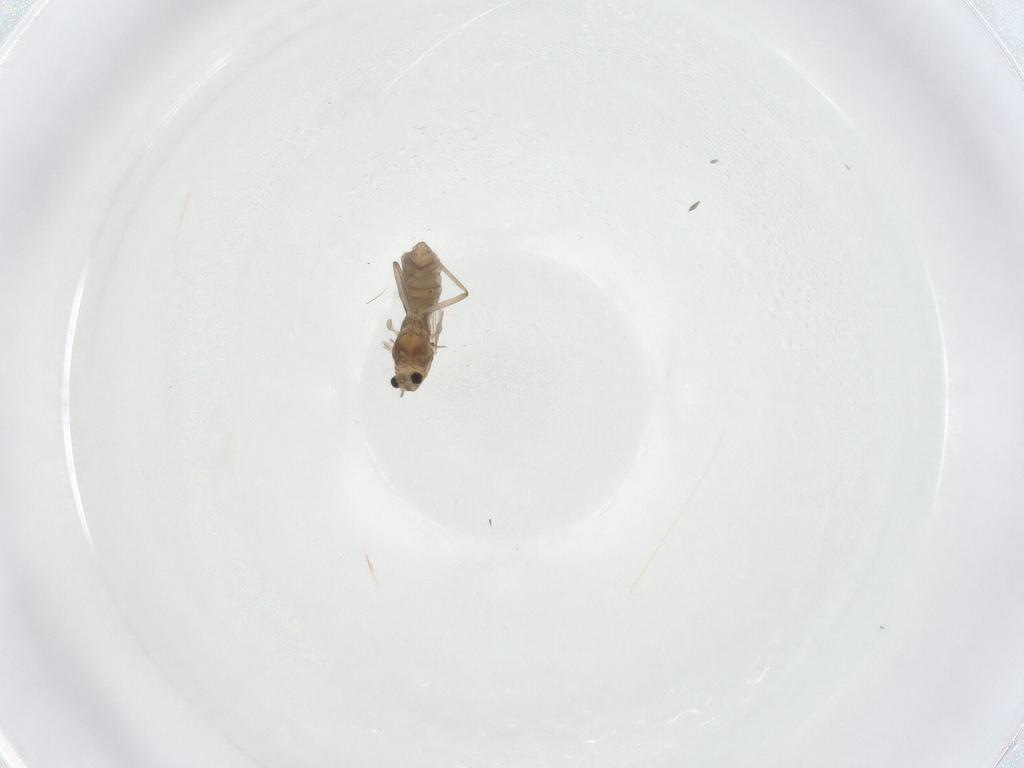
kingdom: Animalia
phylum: Arthropoda
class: Insecta
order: Diptera
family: Chironomidae
